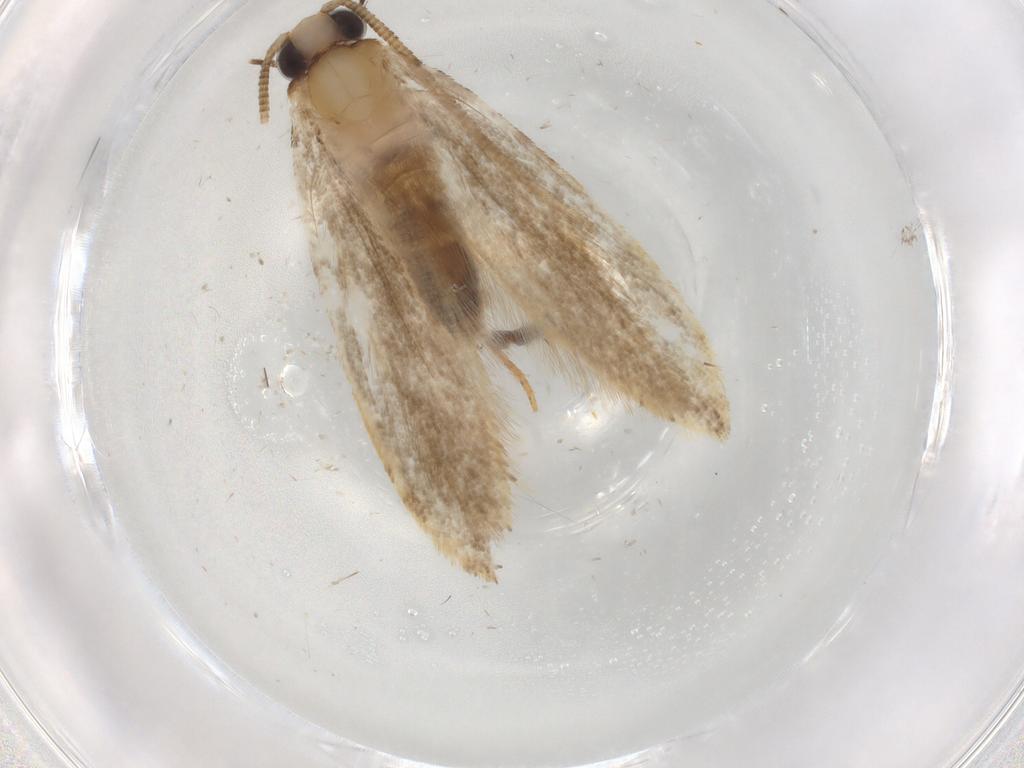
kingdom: Animalia
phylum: Arthropoda
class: Insecta
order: Lepidoptera
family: Tineidae
